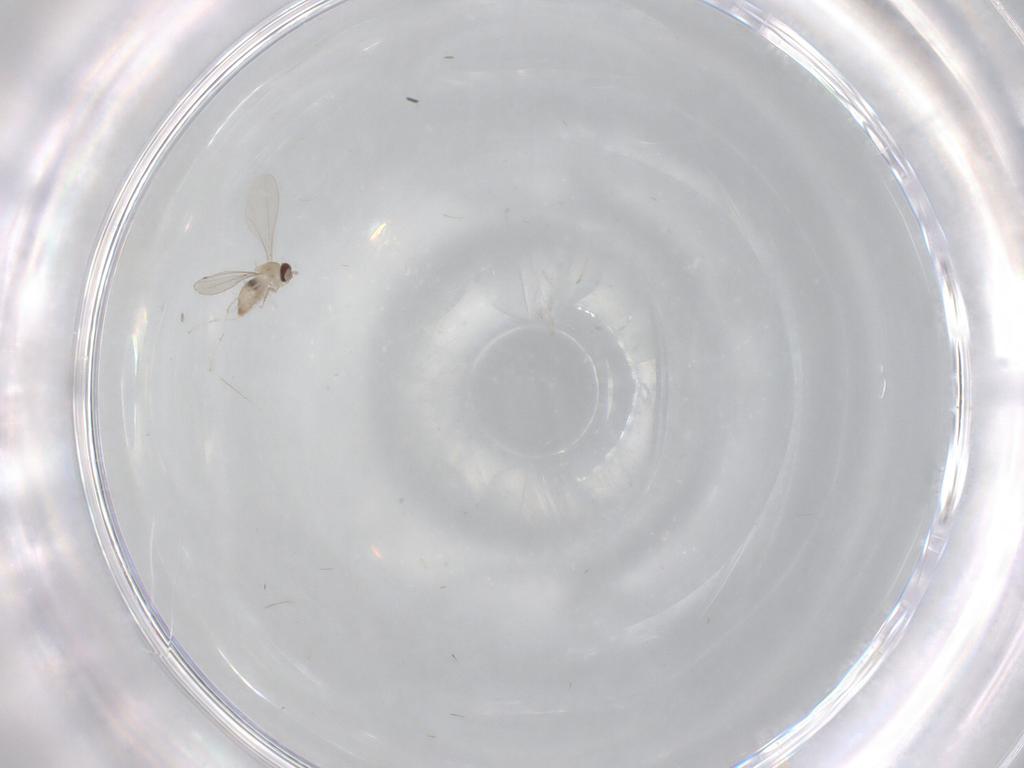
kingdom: Animalia
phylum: Arthropoda
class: Insecta
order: Diptera
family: Cecidomyiidae
